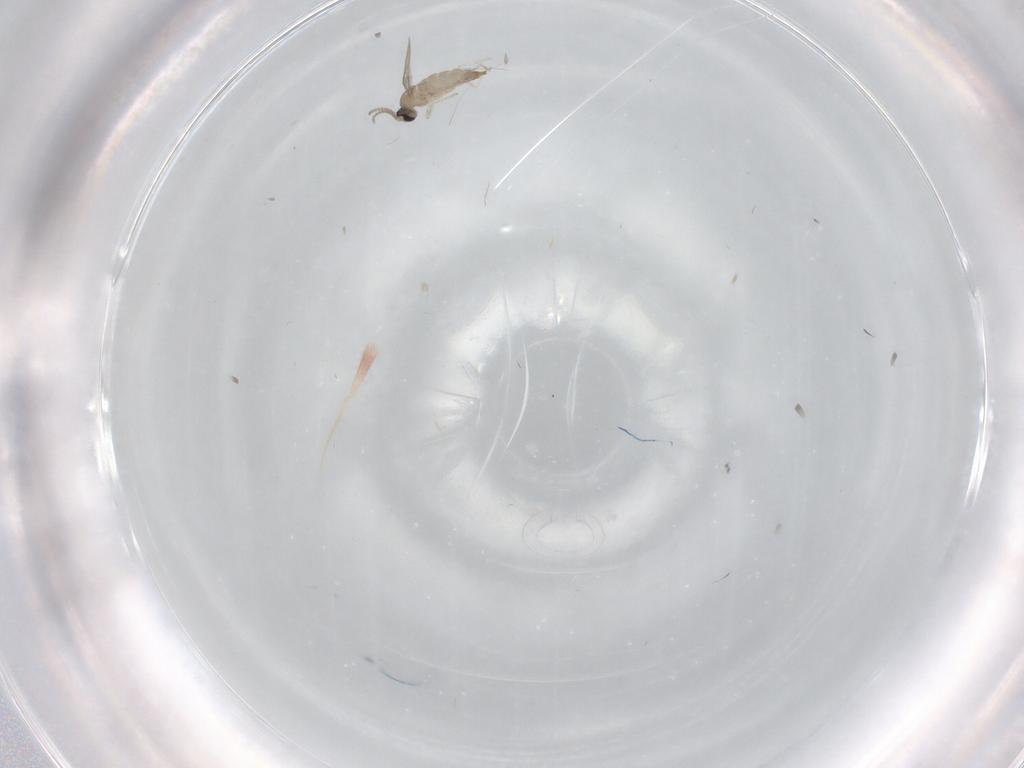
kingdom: Animalia
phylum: Arthropoda
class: Insecta
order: Diptera
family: Cecidomyiidae
